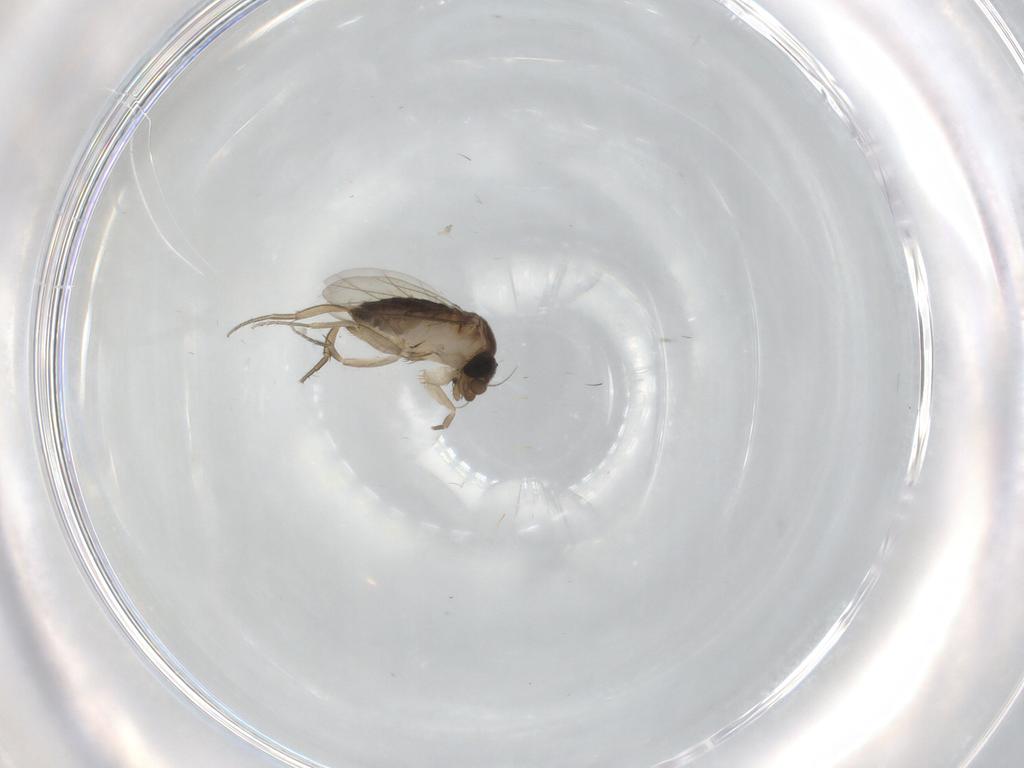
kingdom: Animalia
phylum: Arthropoda
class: Insecta
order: Diptera
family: Phoridae
